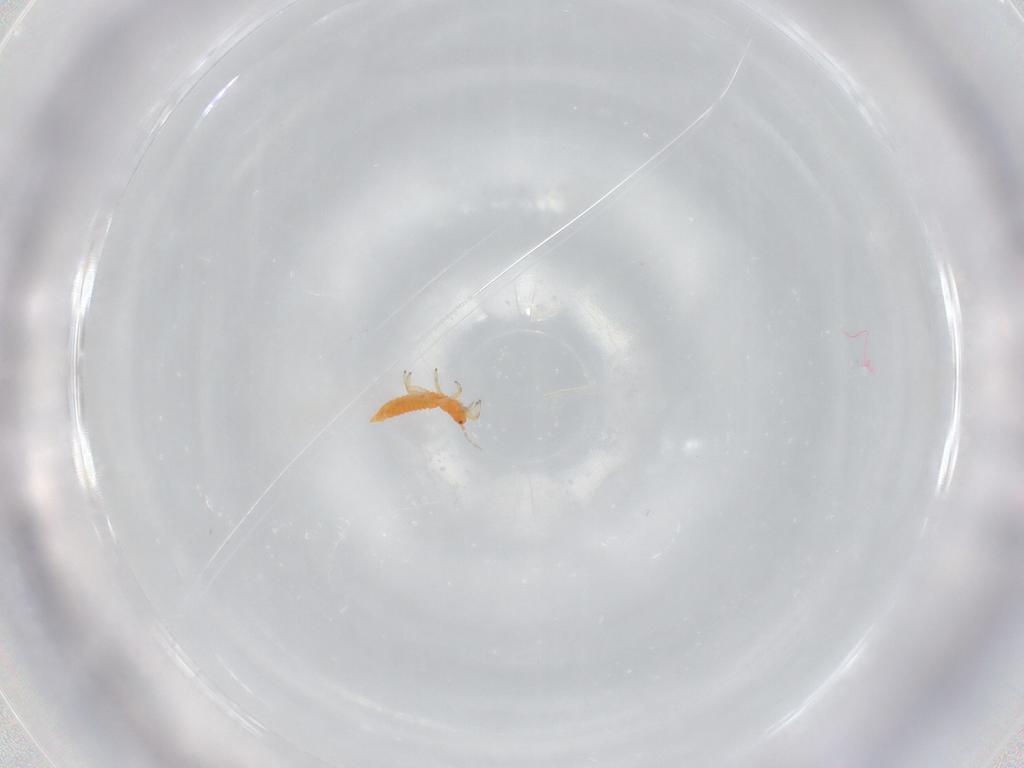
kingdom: Animalia
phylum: Arthropoda
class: Insecta
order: Thysanoptera
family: Aeolothripidae
